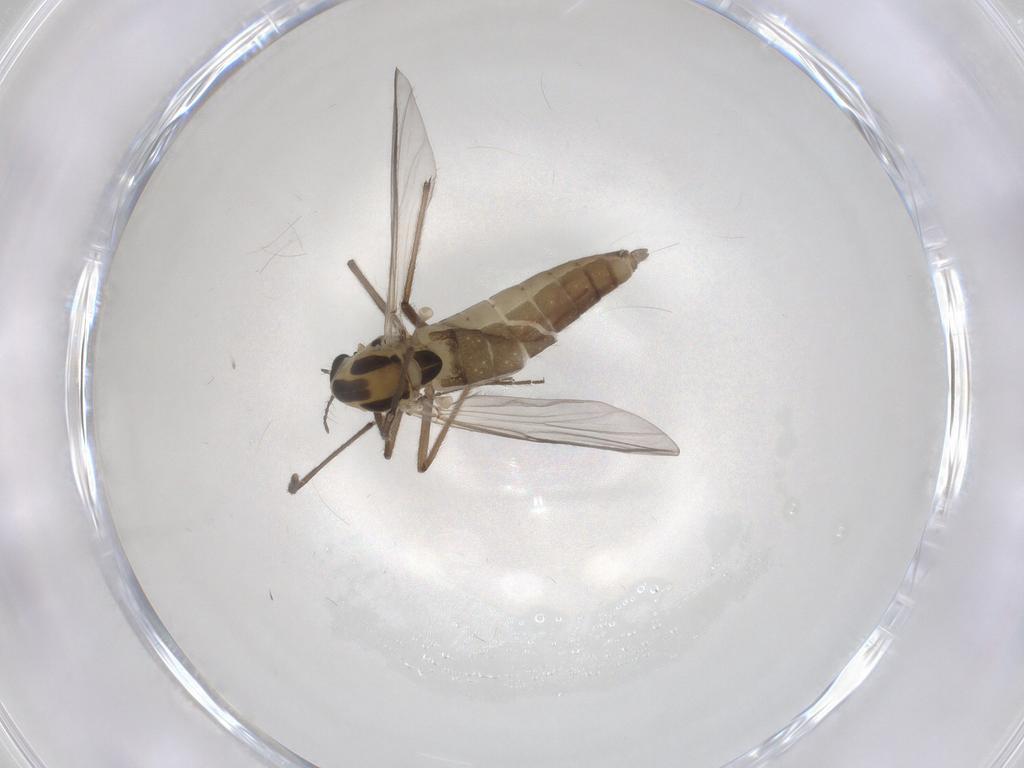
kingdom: Animalia
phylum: Arthropoda
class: Insecta
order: Diptera
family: Chironomidae
